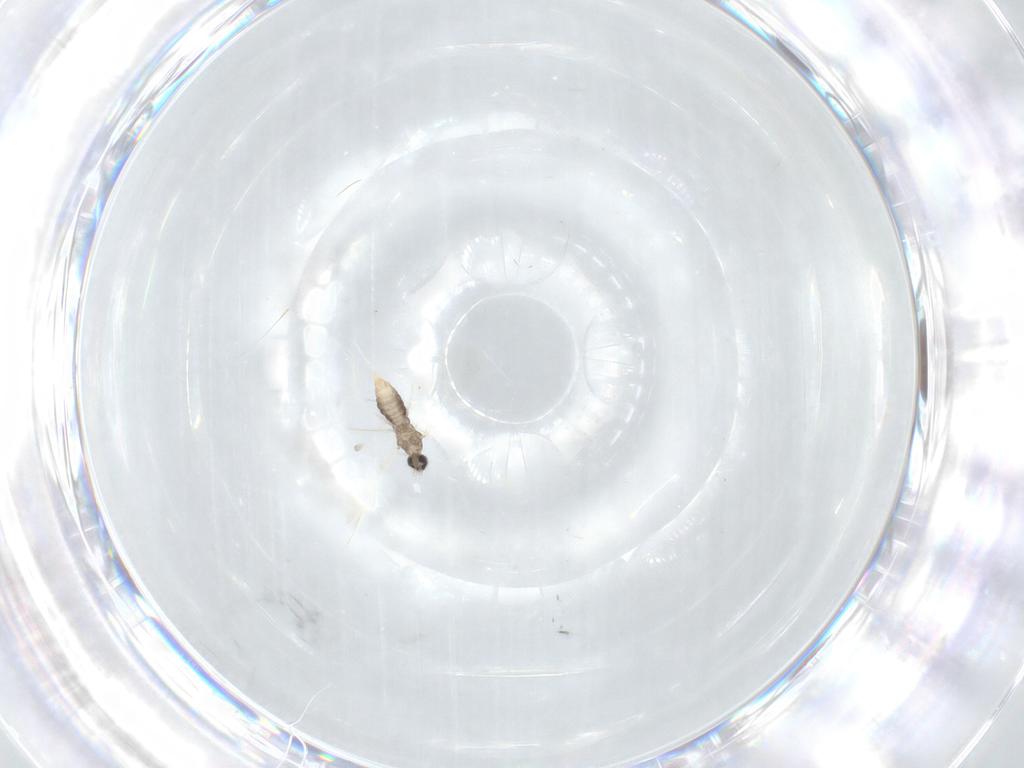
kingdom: Animalia
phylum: Arthropoda
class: Insecta
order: Diptera
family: Cecidomyiidae
